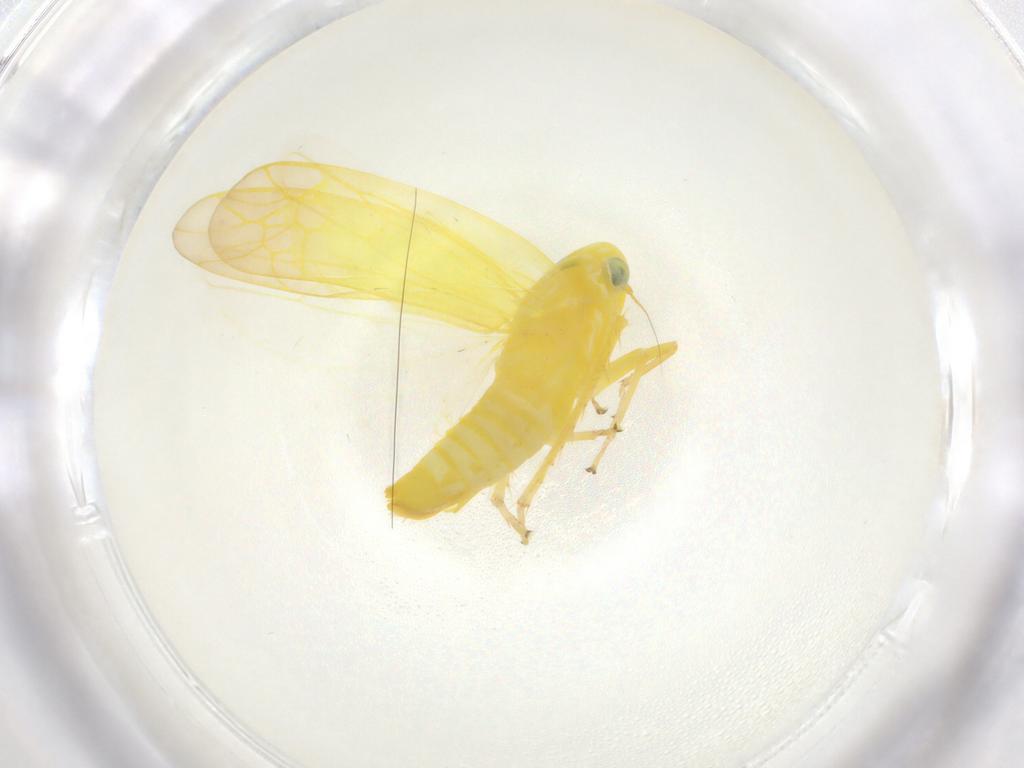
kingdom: Animalia
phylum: Arthropoda
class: Insecta
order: Hemiptera
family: Cicadellidae
